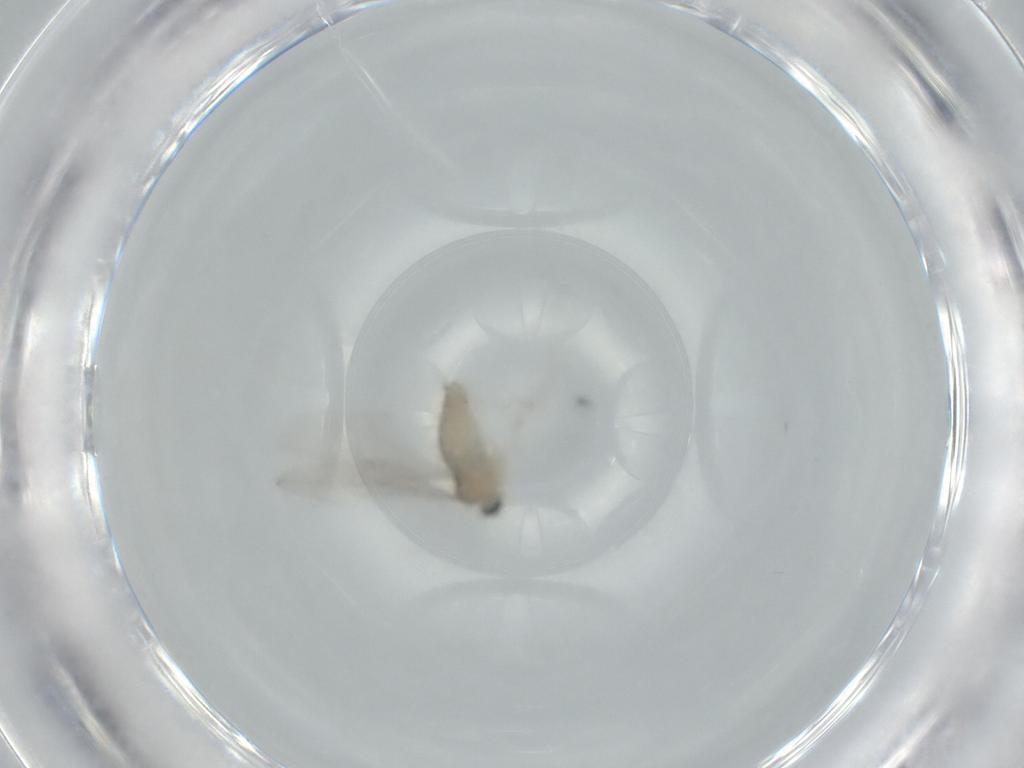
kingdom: Animalia
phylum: Arthropoda
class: Insecta
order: Diptera
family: Cecidomyiidae
